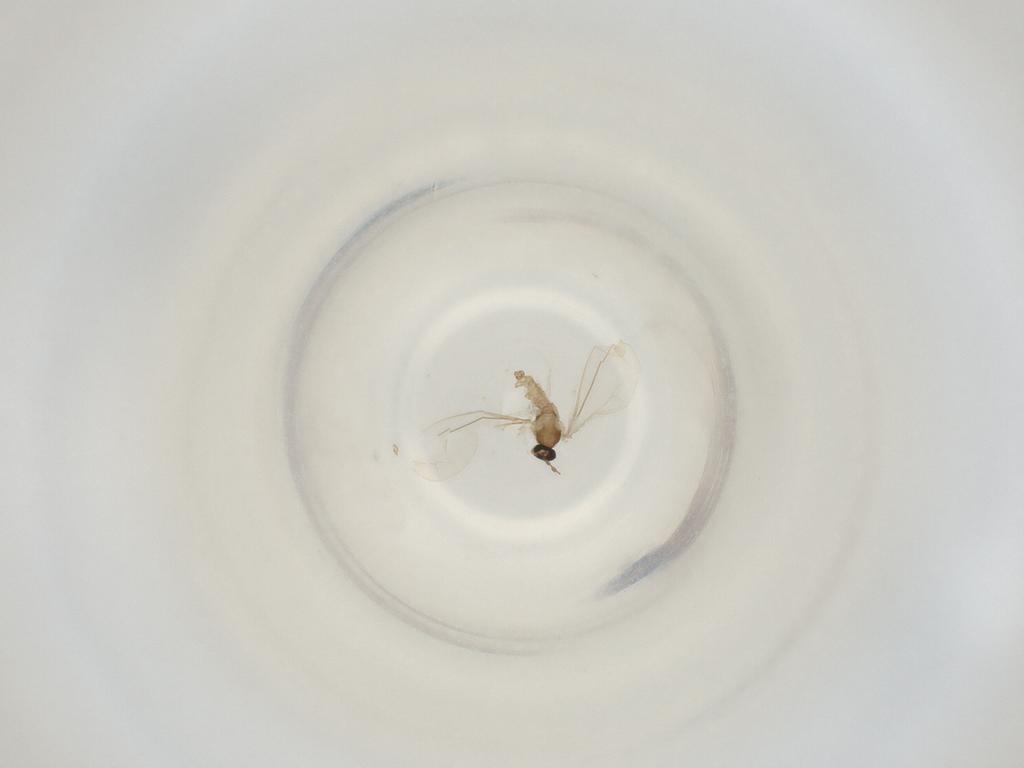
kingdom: Animalia
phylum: Arthropoda
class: Insecta
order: Diptera
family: Cecidomyiidae
